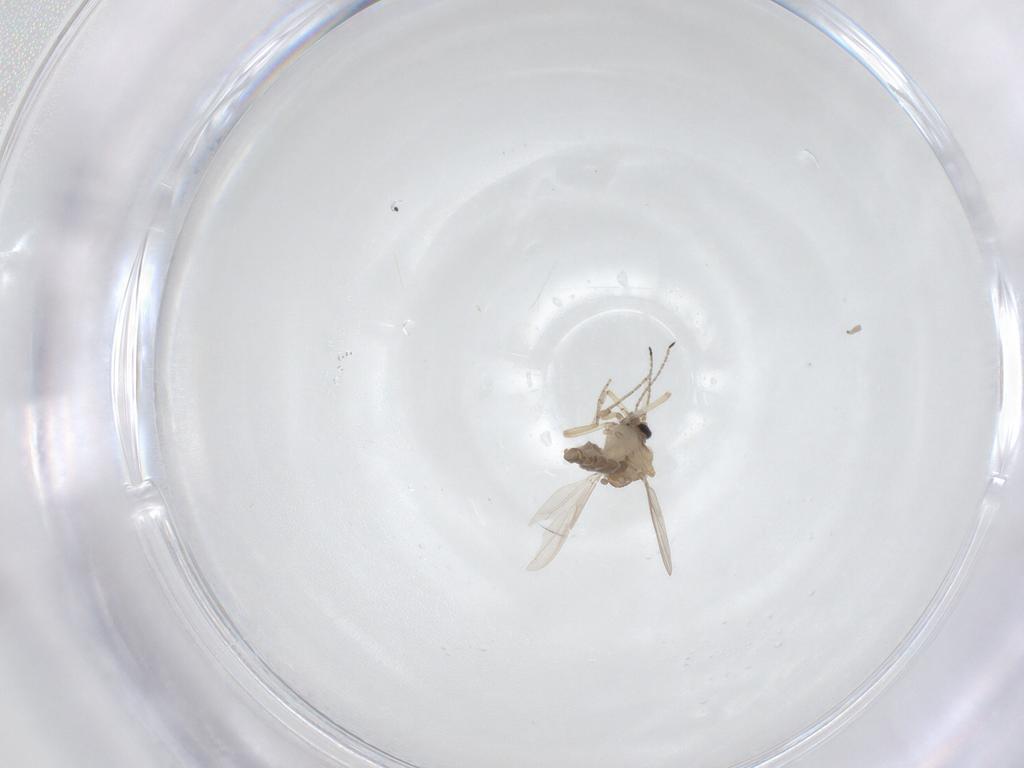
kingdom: Animalia
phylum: Arthropoda
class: Insecta
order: Diptera
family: Ceratopogonidae
